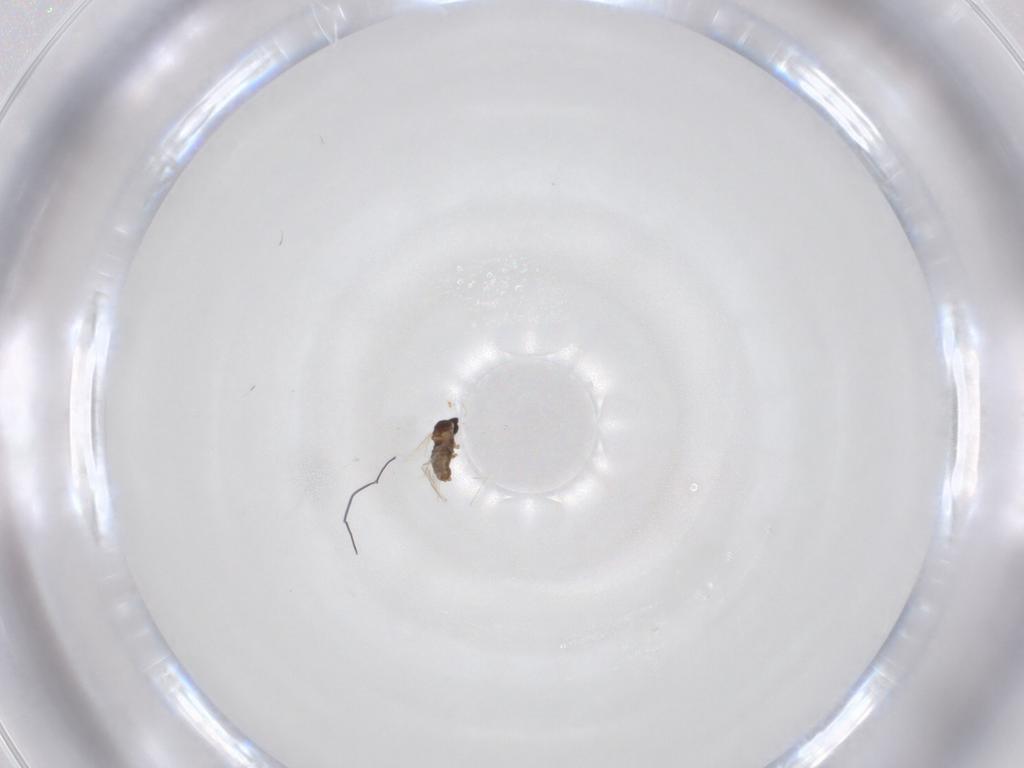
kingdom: Animalia
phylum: Arthropoda
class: Insecta
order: Diptera
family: Cecidomyiidae
